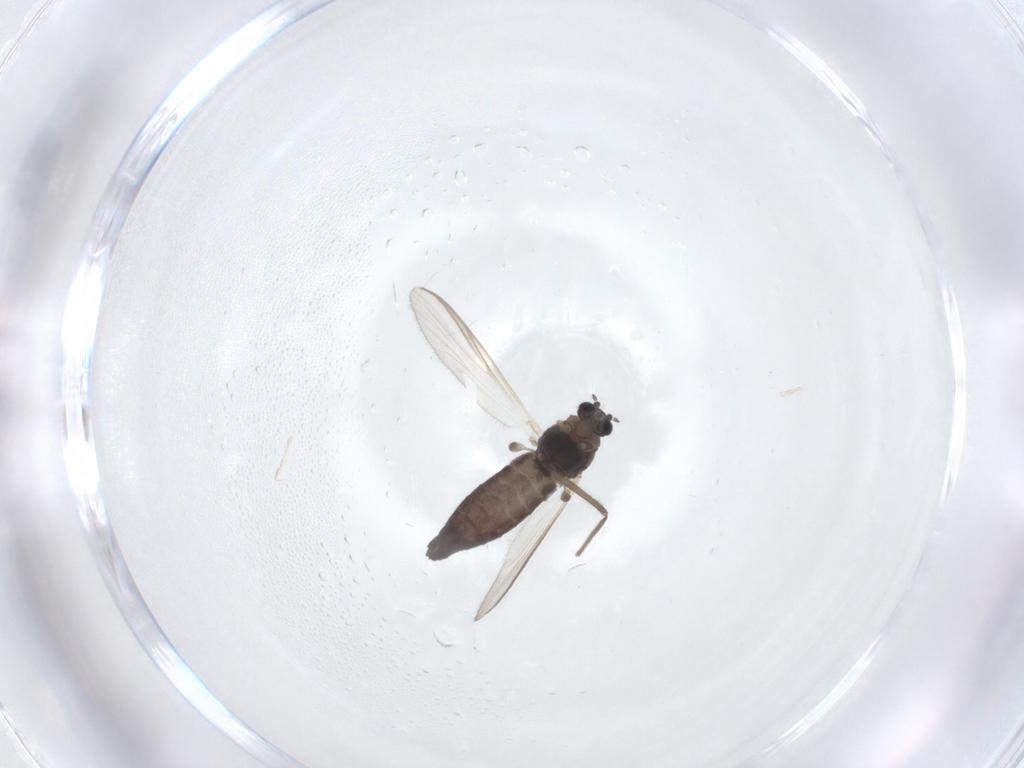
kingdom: Animalia
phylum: Arthropoda
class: Insecta
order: Diptera
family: Chironomidae
